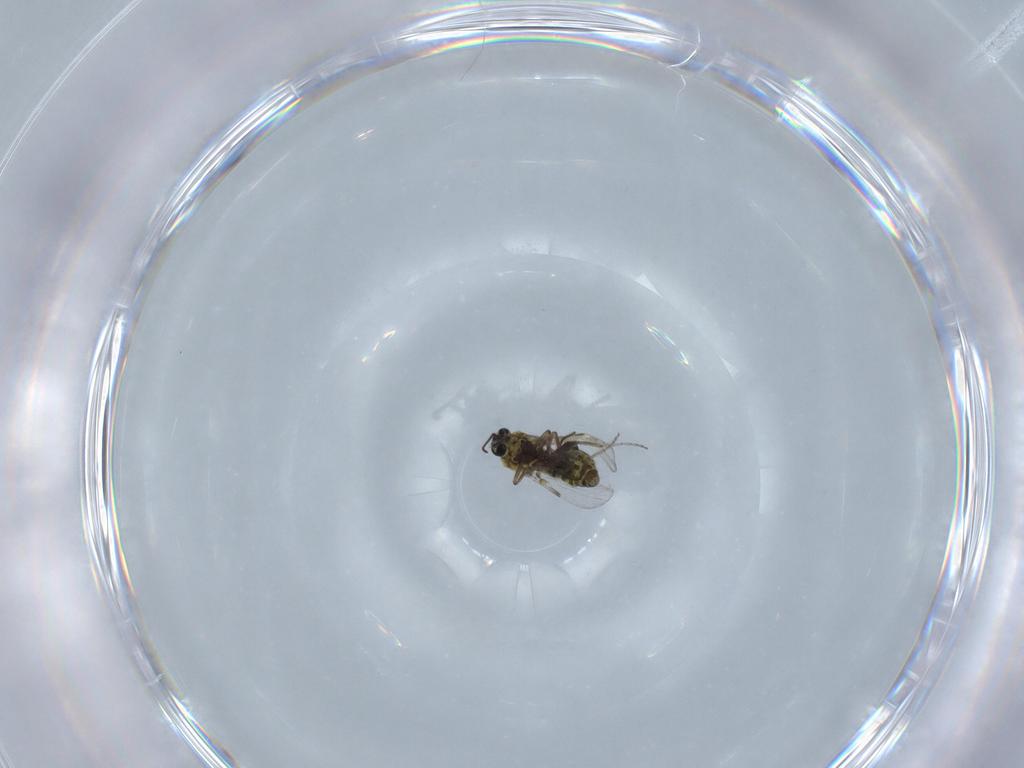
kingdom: Animalia
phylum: Arthropoda
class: Insecta
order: Diptera
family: Ceratopogonidae
